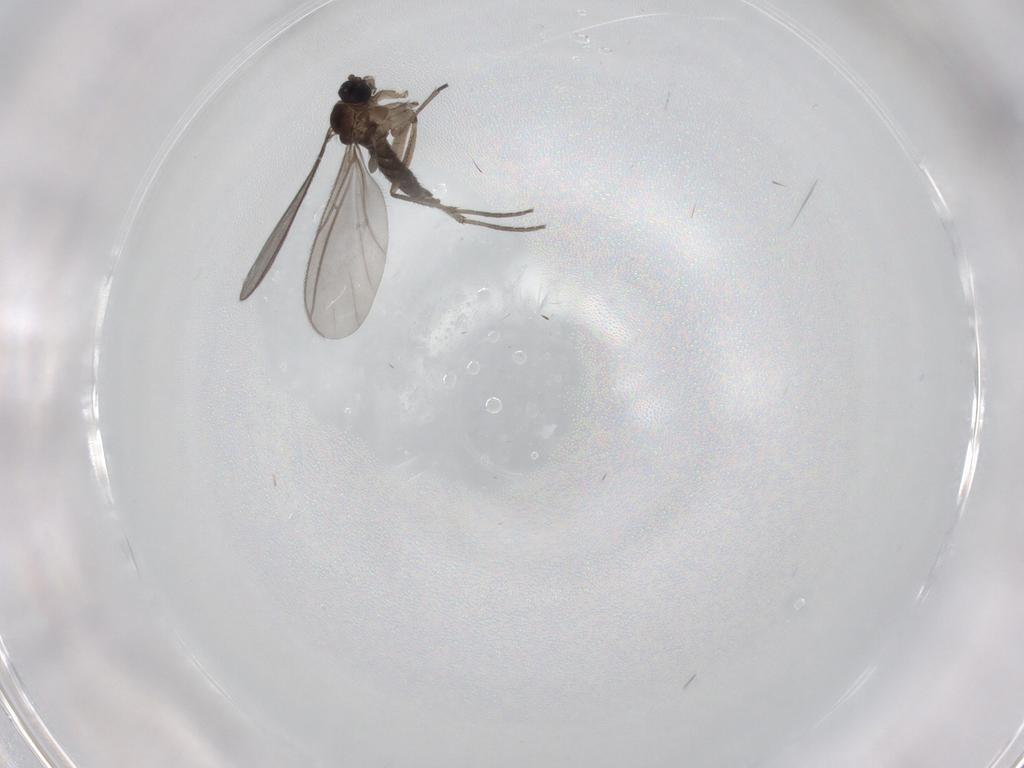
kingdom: Animalia
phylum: Arthropoda
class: Insecta
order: Diptera
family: Sciaridae
